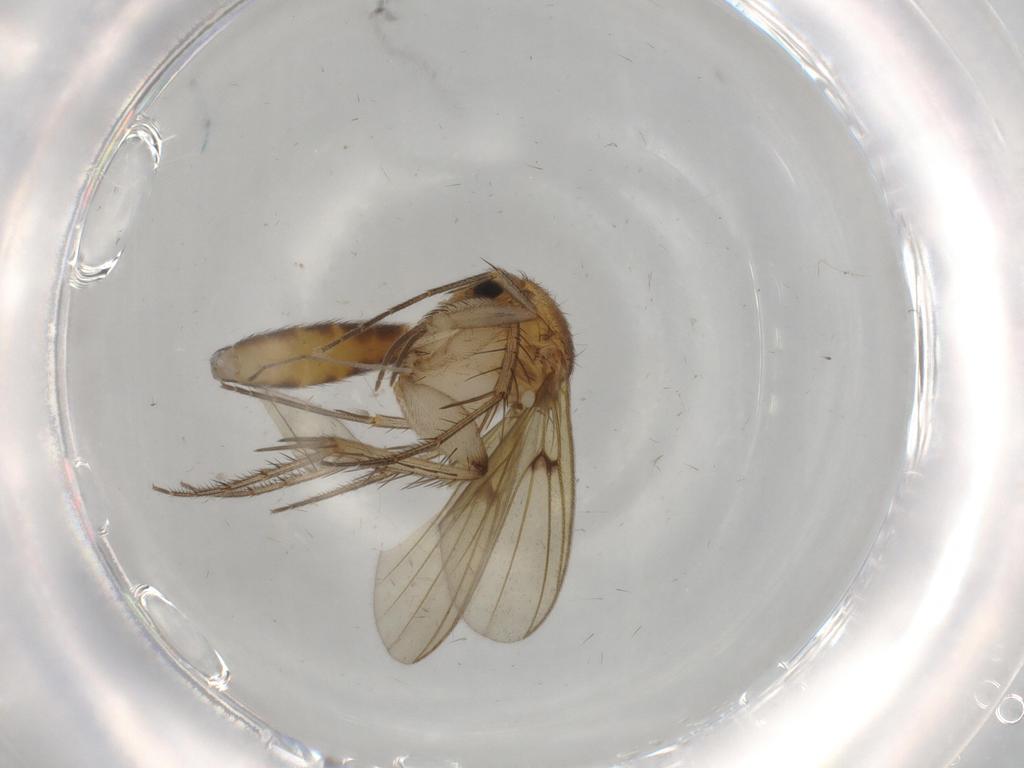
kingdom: Animalia
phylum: Arthropoda
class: Insecta
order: Diptera
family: Mycetophilidae
